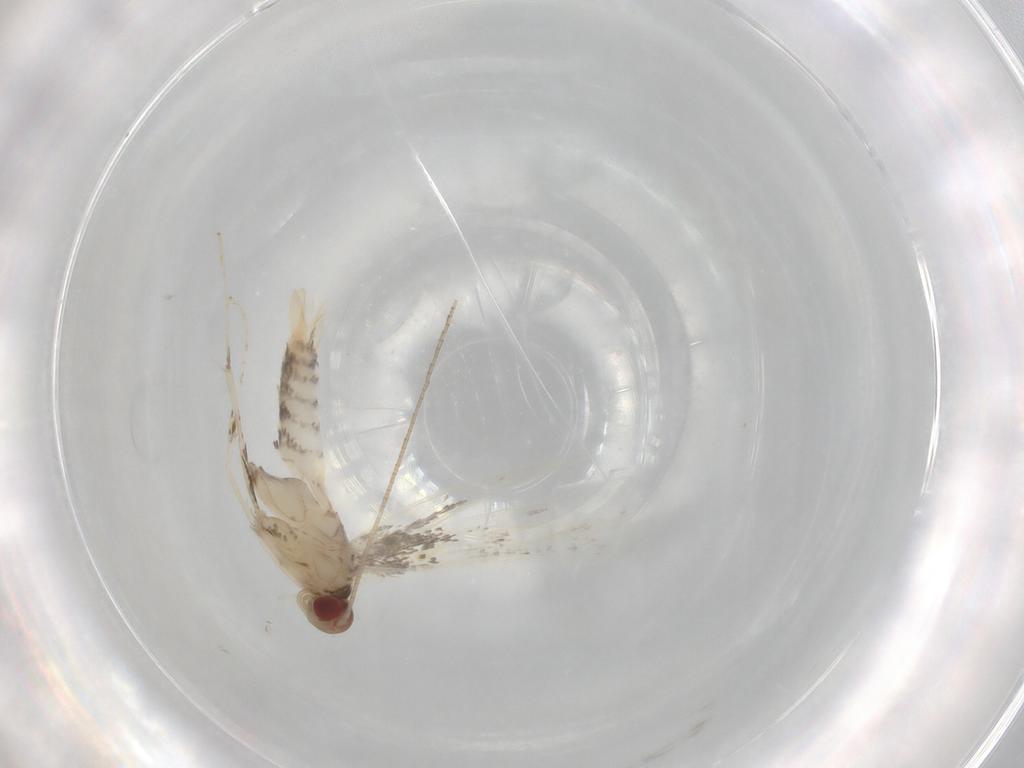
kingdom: Animalia
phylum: Arthropoda
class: Insecta
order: Lepidoptera
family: Gracillariidae
